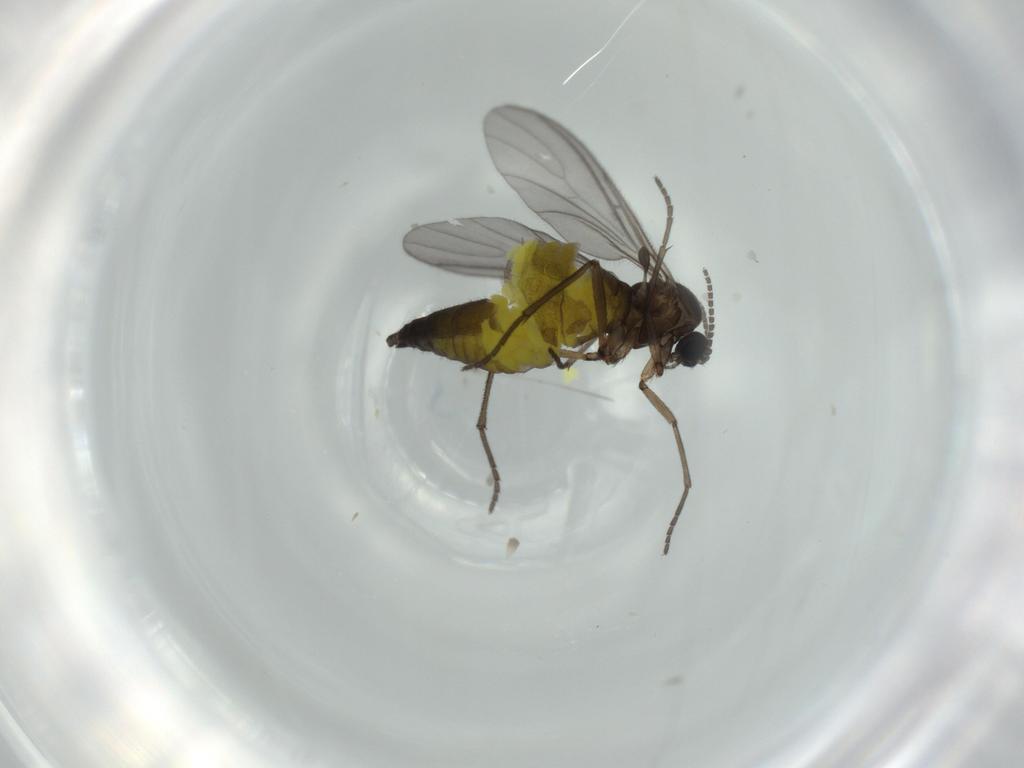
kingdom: Animalia
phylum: Arthropoda
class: Insecta
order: Diptera
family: Sciaridae
